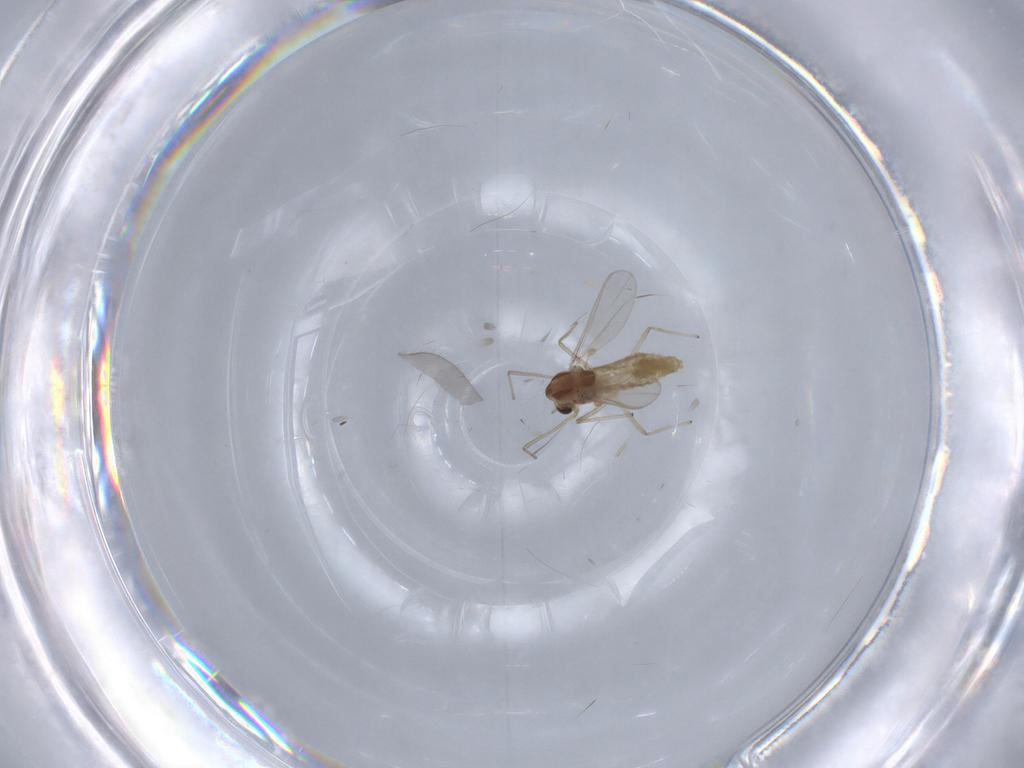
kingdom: Animalia
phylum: Arthropoda
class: Insecta
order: Diptera
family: Chironomidae
